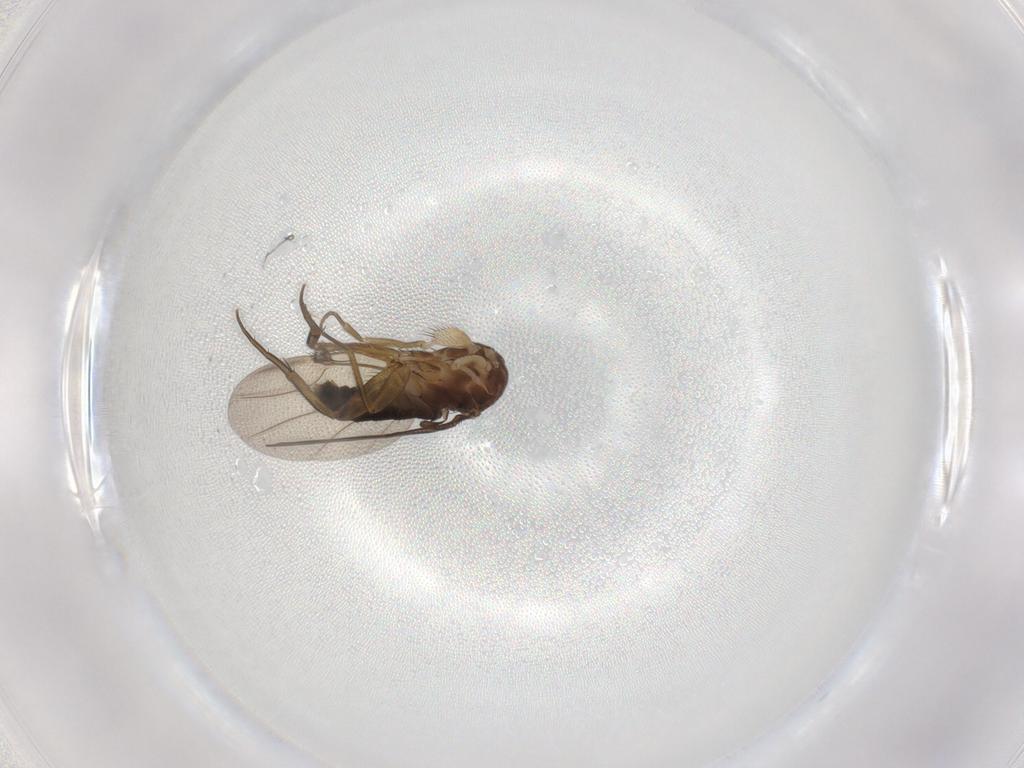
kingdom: Animalia
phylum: Arthropoda
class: Insecta
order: Diptera
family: Phoridae
